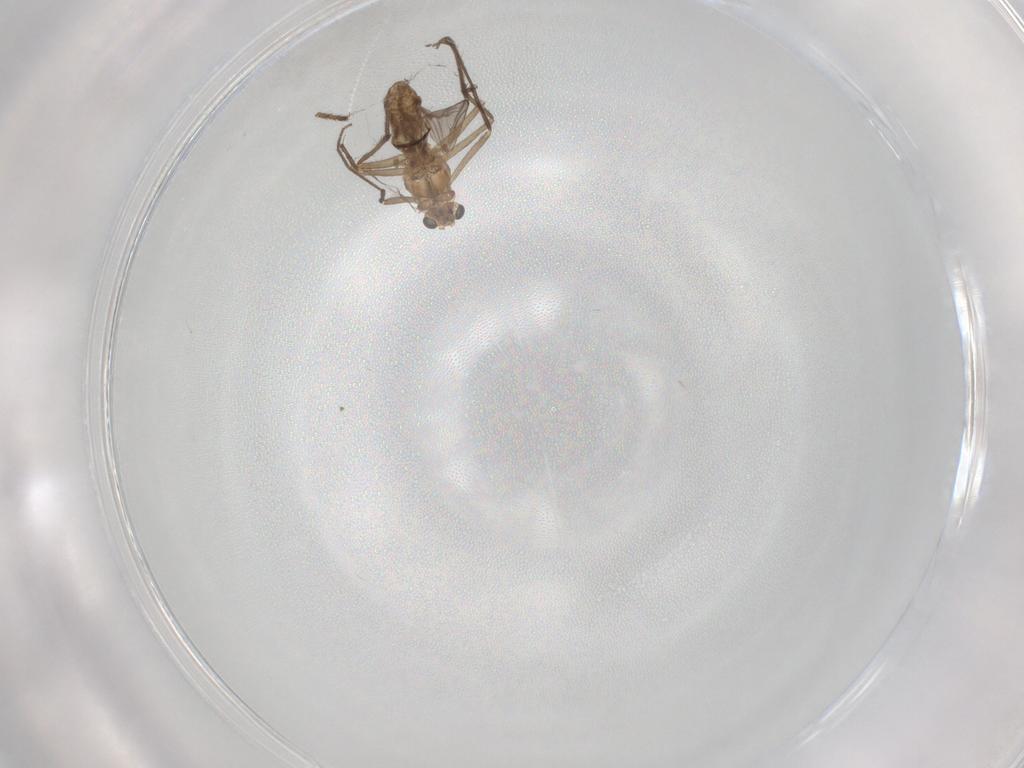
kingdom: Animalia
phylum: Arthropoda
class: Insecta
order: Diptera
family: Chironomidae
